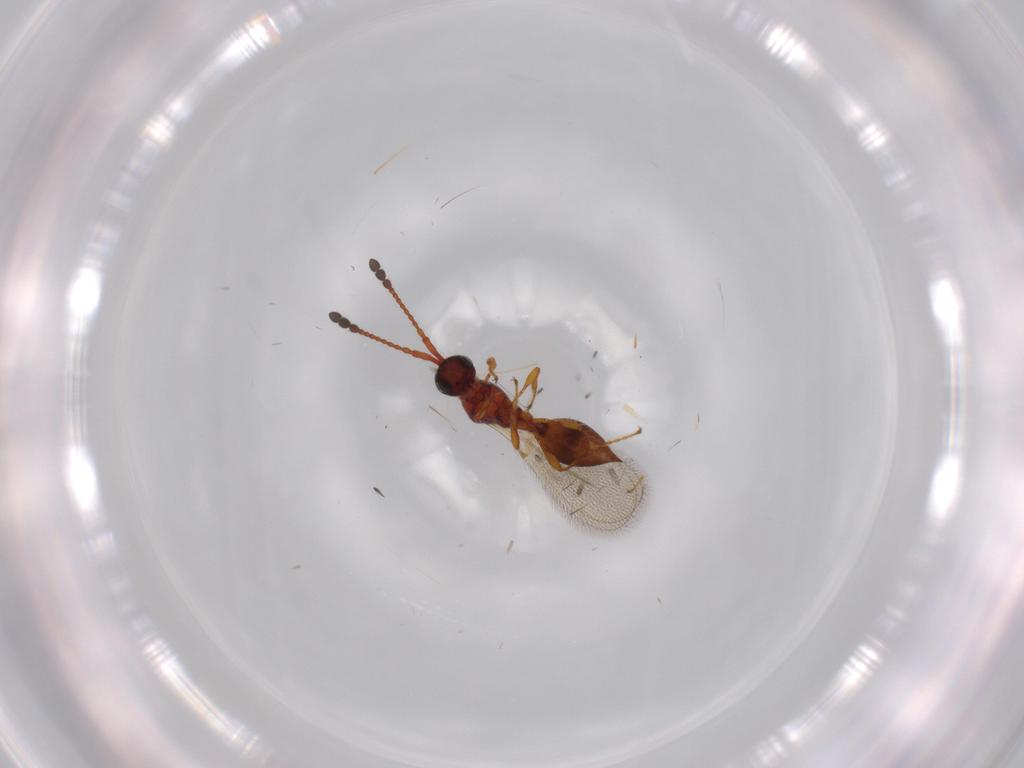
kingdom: Animalia
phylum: Arthropoda
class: Insecta
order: Hymenoptera
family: Diapriidae
